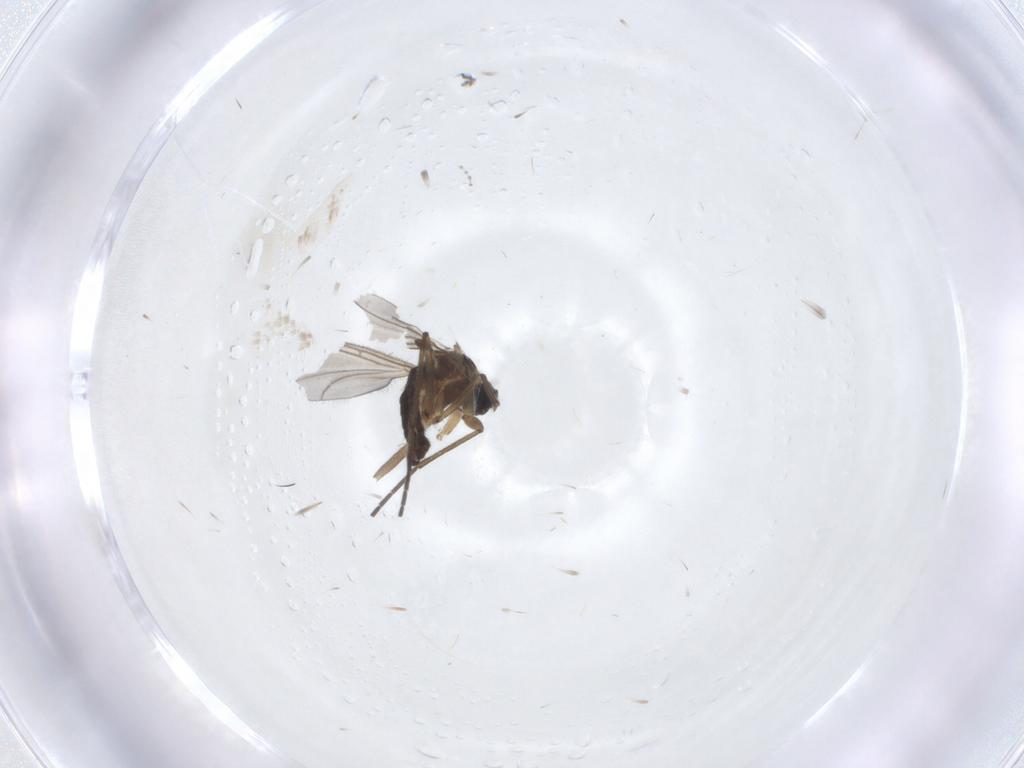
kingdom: Animalia
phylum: Arthropoda
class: Insecta
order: Diptera
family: Sciaridae
